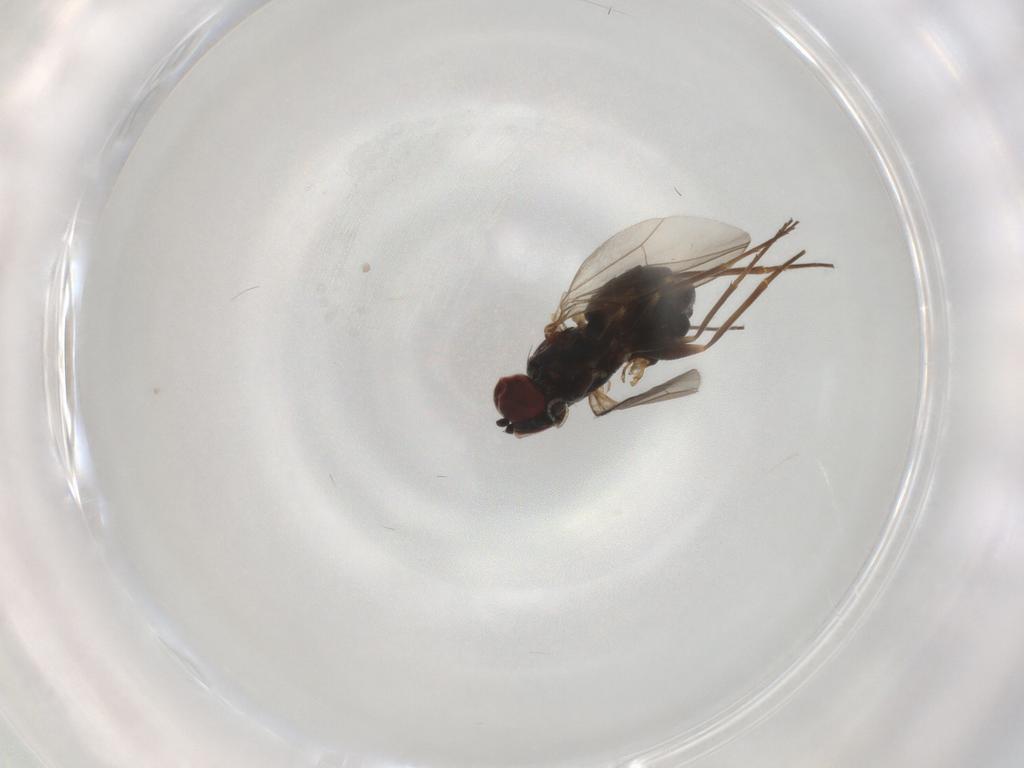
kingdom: Animalia
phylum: Arthropoda
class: Insecta
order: Diptera
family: Dolichopodidae
